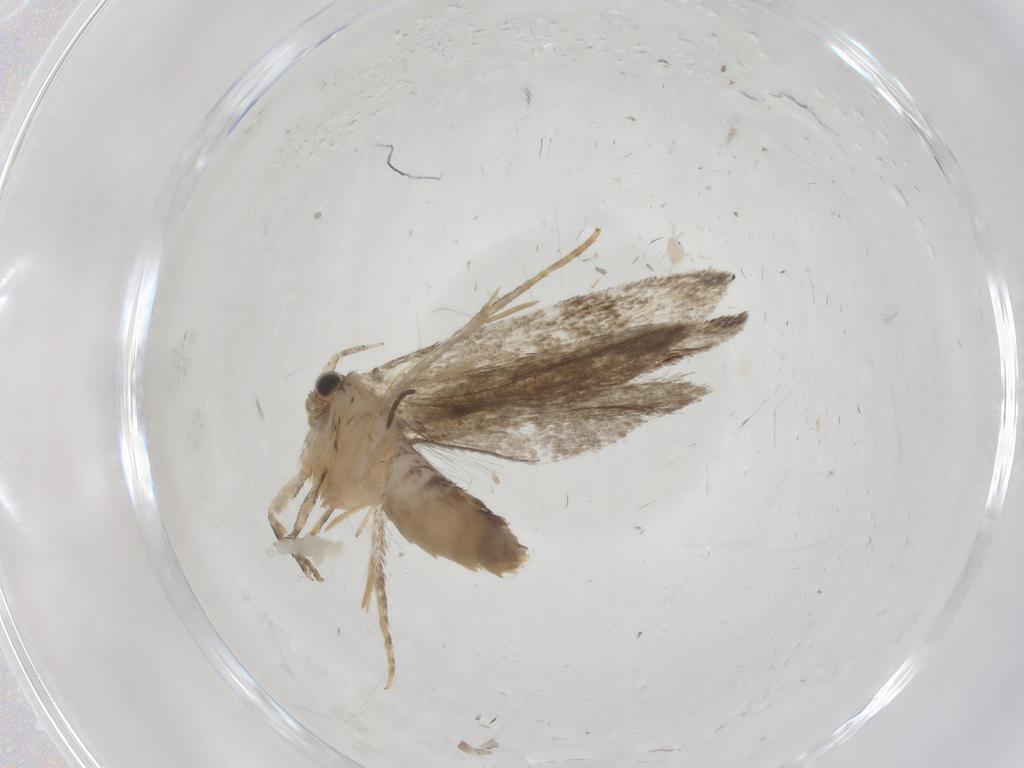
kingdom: Animalia
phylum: Arthropoda
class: Insecta
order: Lepidoptera
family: Tineidae
